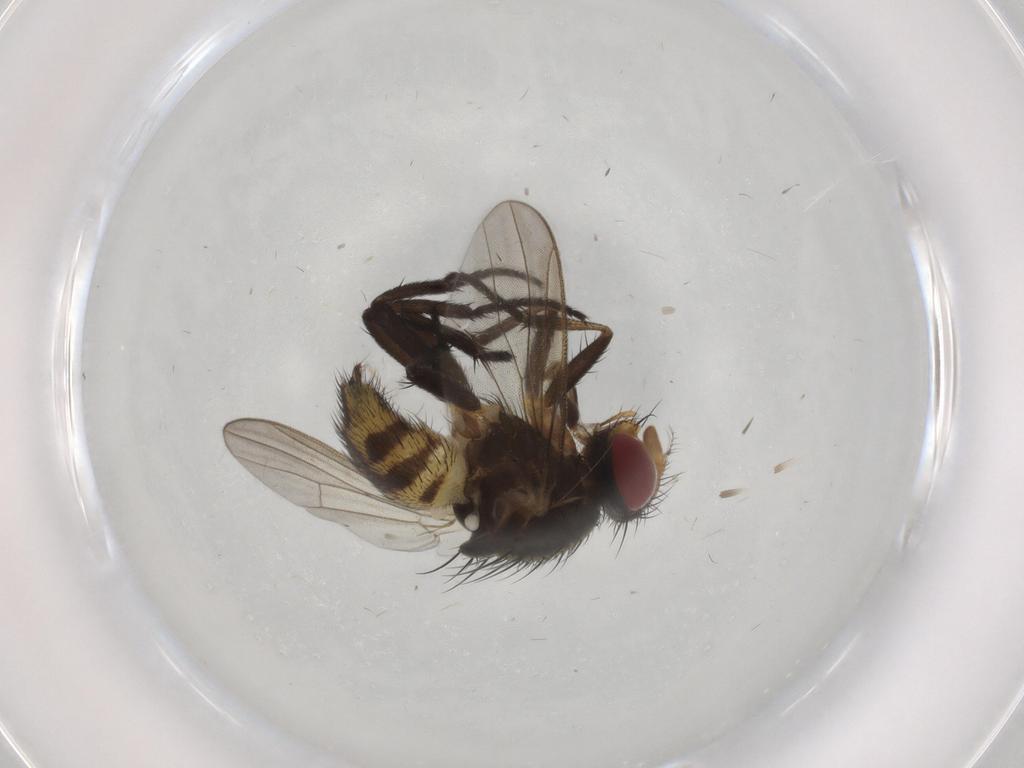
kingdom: Animalia
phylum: Arthropoda
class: Insecta
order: Diptera
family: Anthomyiidae
